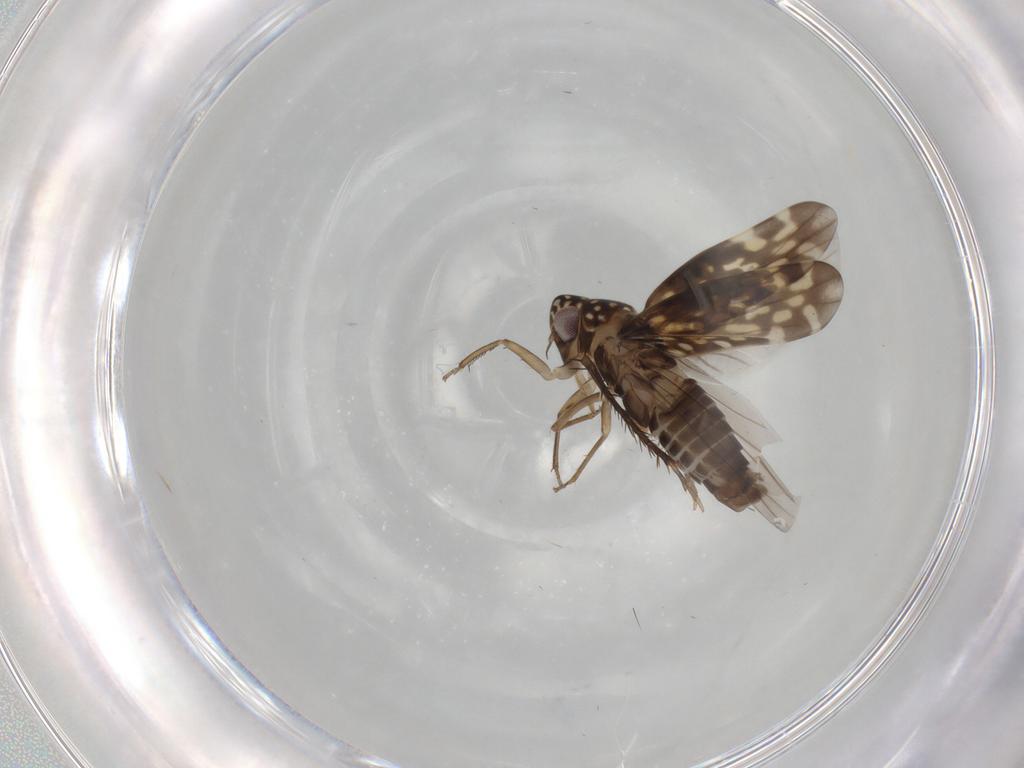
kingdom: Animalia
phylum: Arthropoda
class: Insecta
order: Hemiptera
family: Cicadellidae
